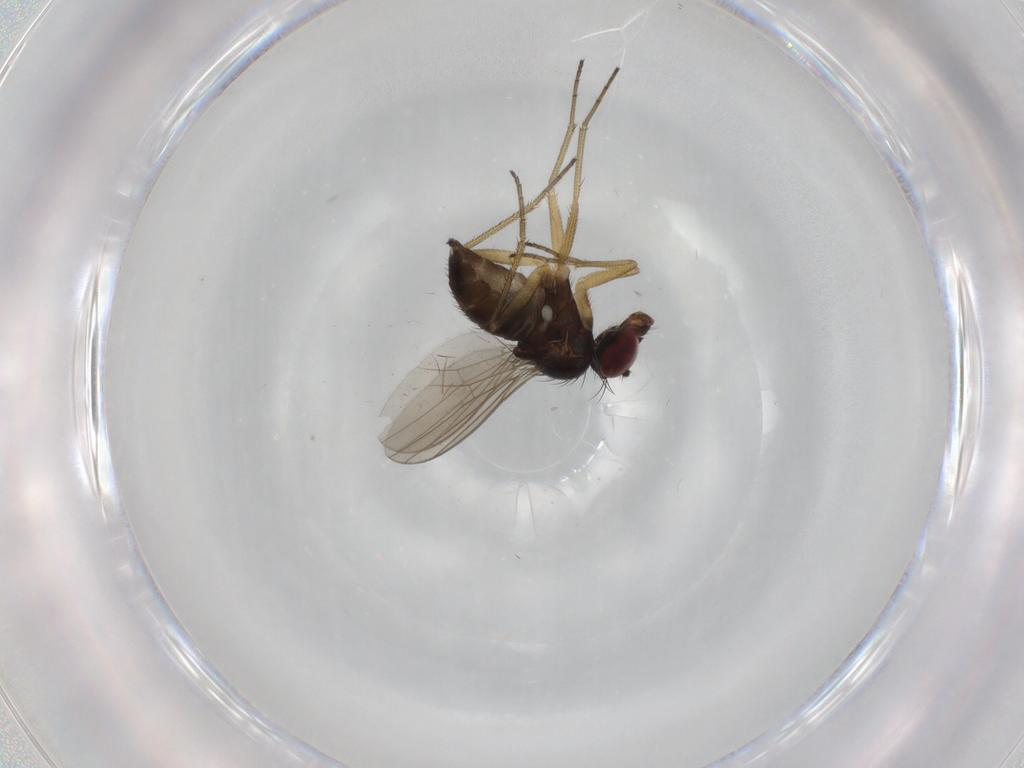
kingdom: Animalia
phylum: Arthropoda
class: Insecta
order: Diptera
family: Dolichopodidae
